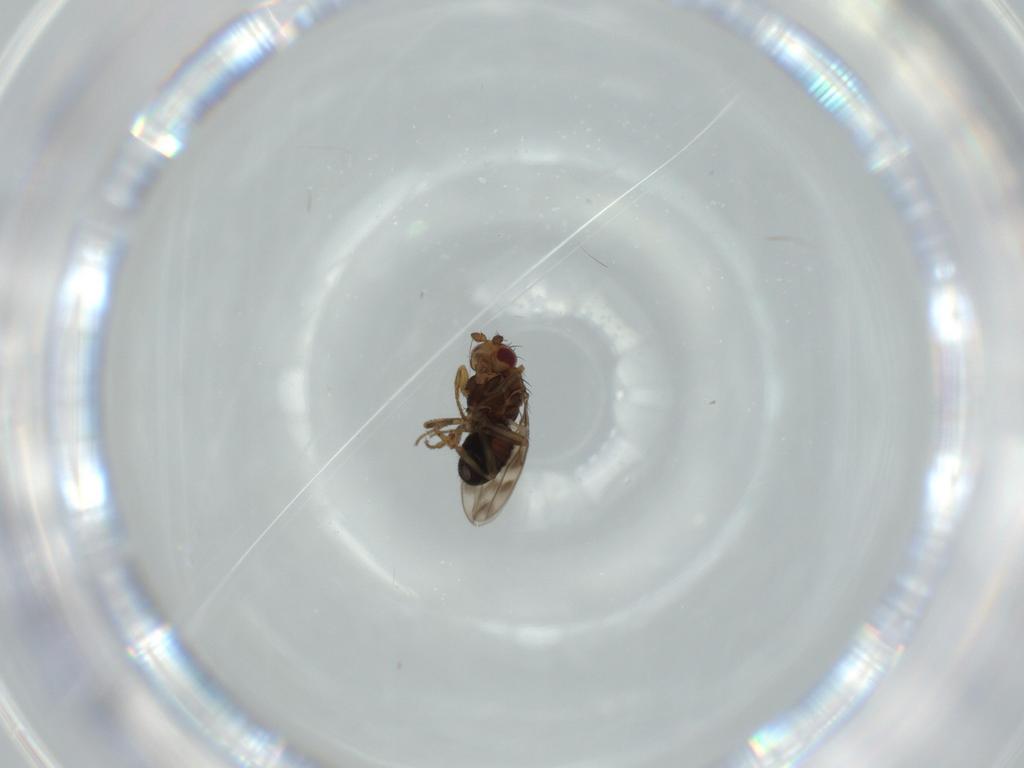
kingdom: Animalia
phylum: Arthropoda
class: Insecta
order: Diptera
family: Sphaeroceridae
